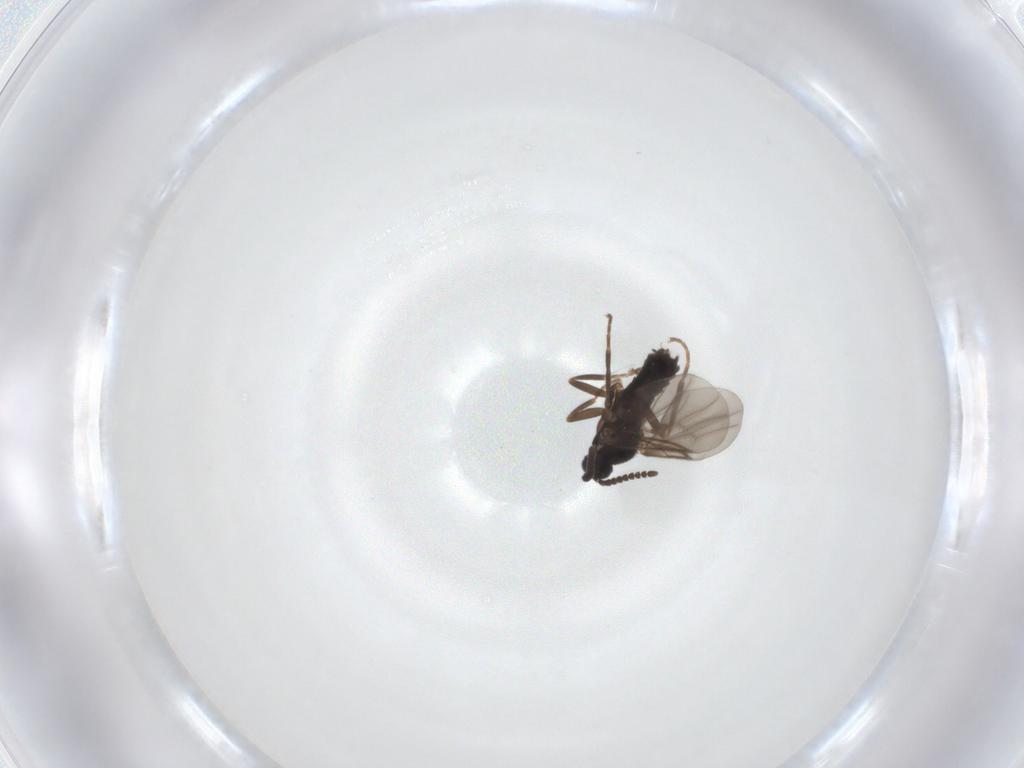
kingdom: Animalia
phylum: Arthropoda
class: Insecta
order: Diptera
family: Scatopsidae
